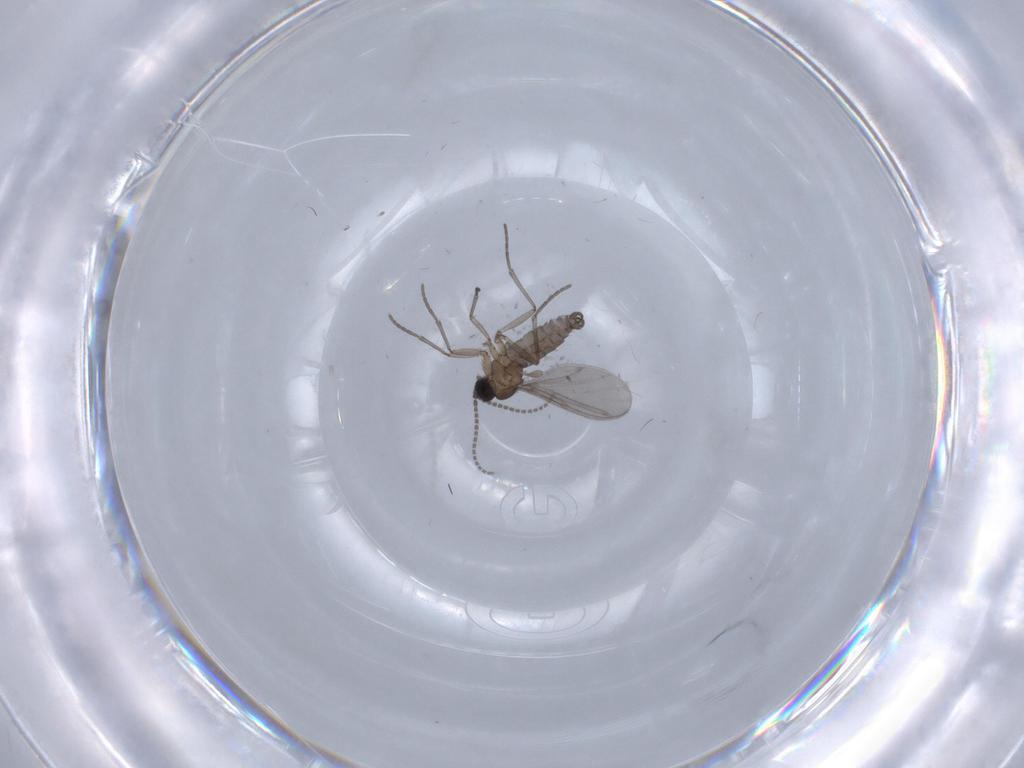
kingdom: Animalia
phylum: Arthropoda
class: Insecta
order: Diptera
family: Chironomidae
